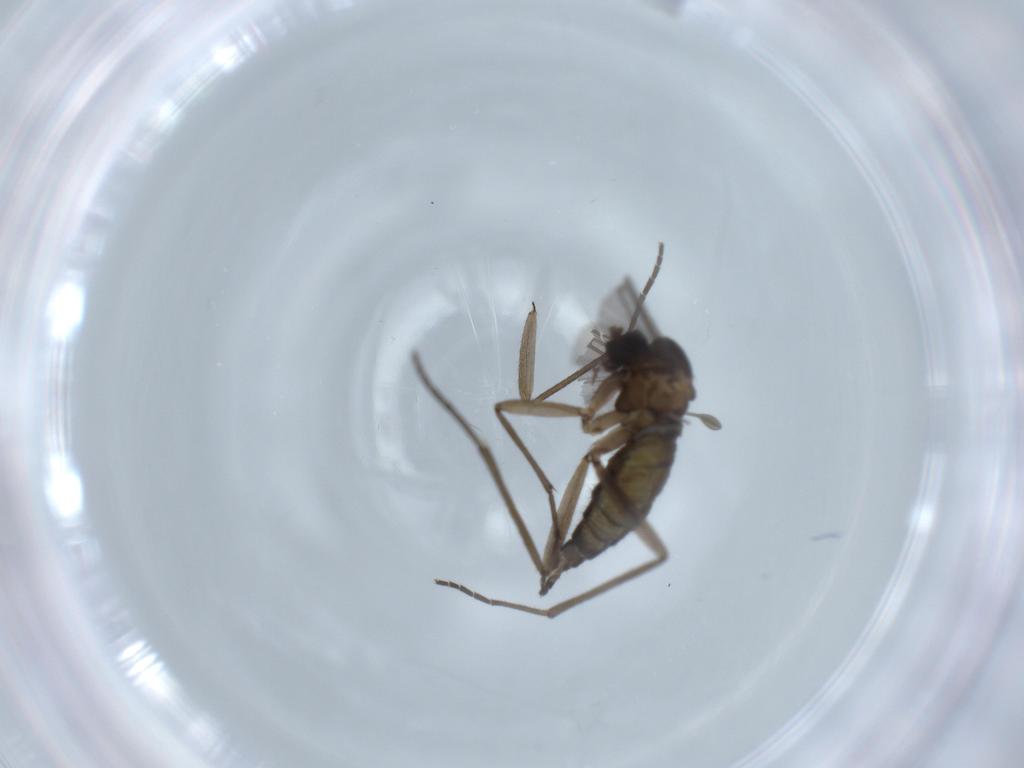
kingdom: Animalia
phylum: Arthropoda
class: Insecta
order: Diptera
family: Sciaridae
